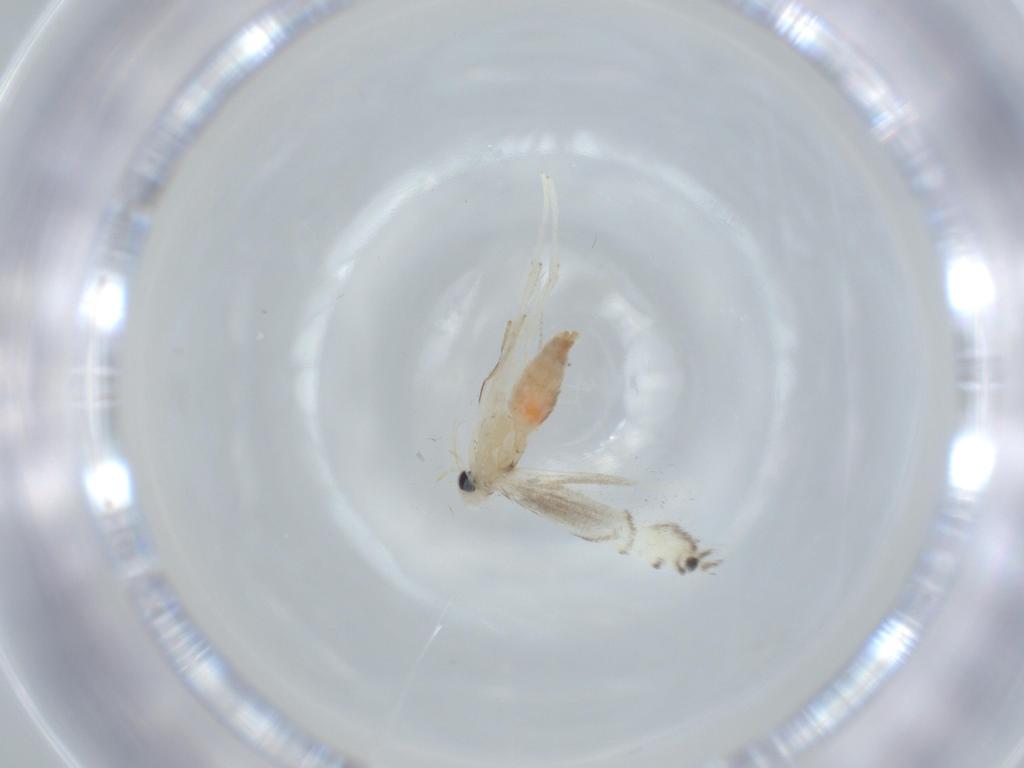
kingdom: Animalia
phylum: Arthropoda
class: Insecta
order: Lepidoptera
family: Gracillariidae
